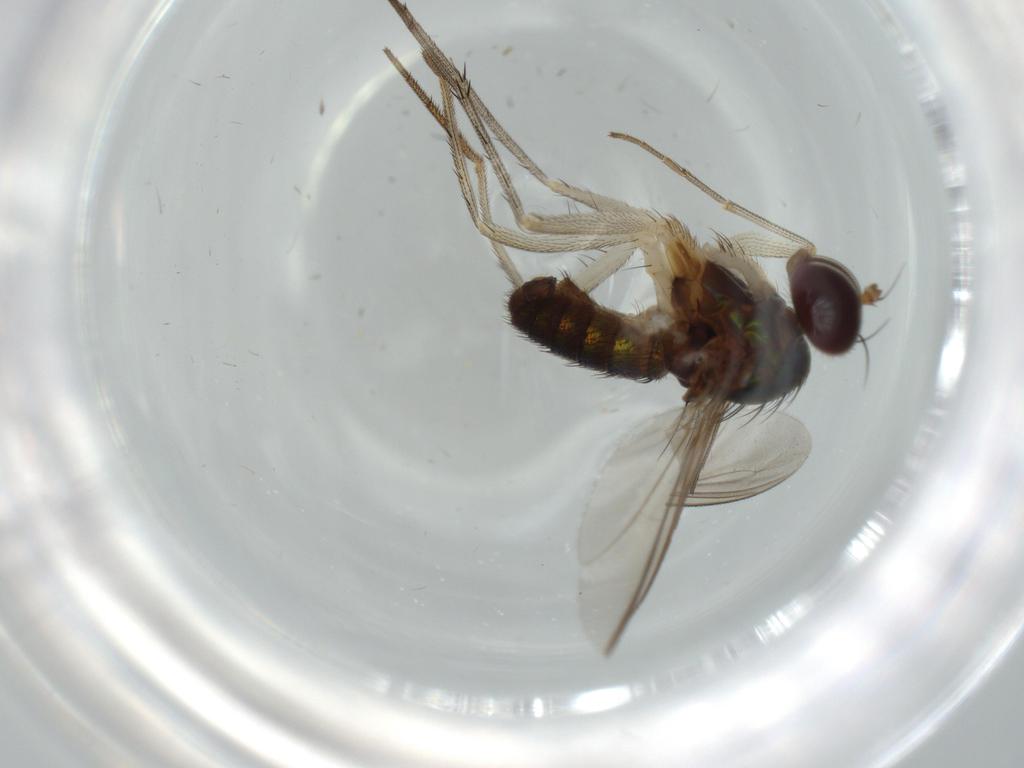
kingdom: Animalia
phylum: Arthropoda
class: Insecta
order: Diptera
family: Dolichopodidae
